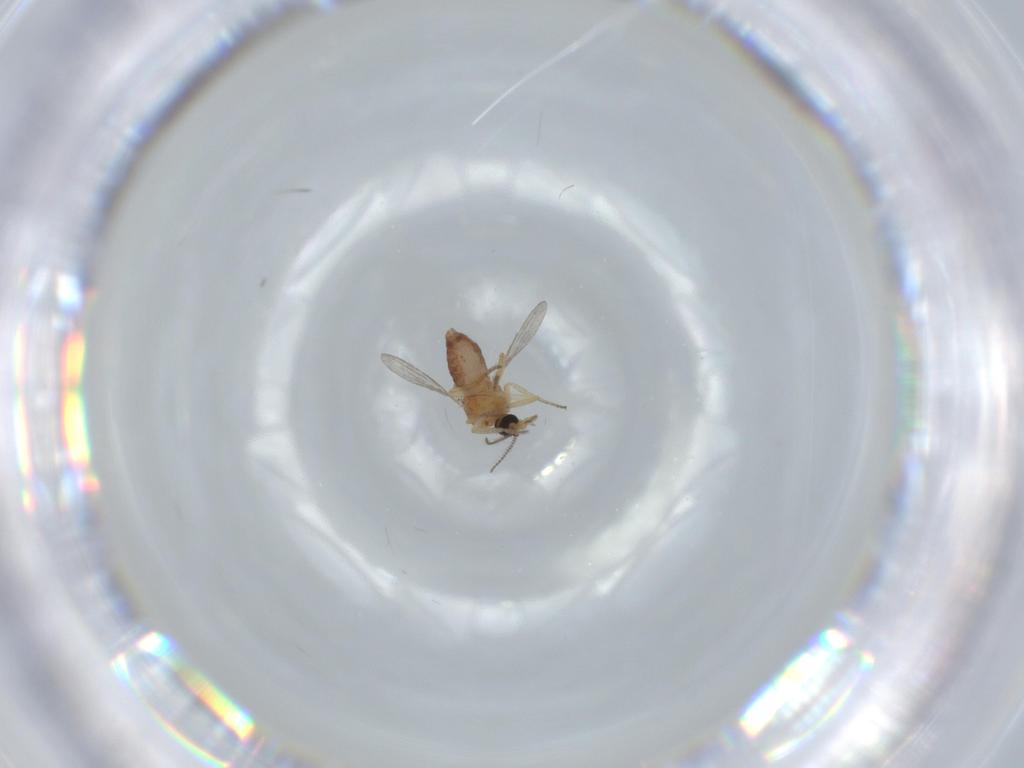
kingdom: Animalia
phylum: Arthropoda
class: Insecta
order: Diptera
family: Ceratopogonidae
